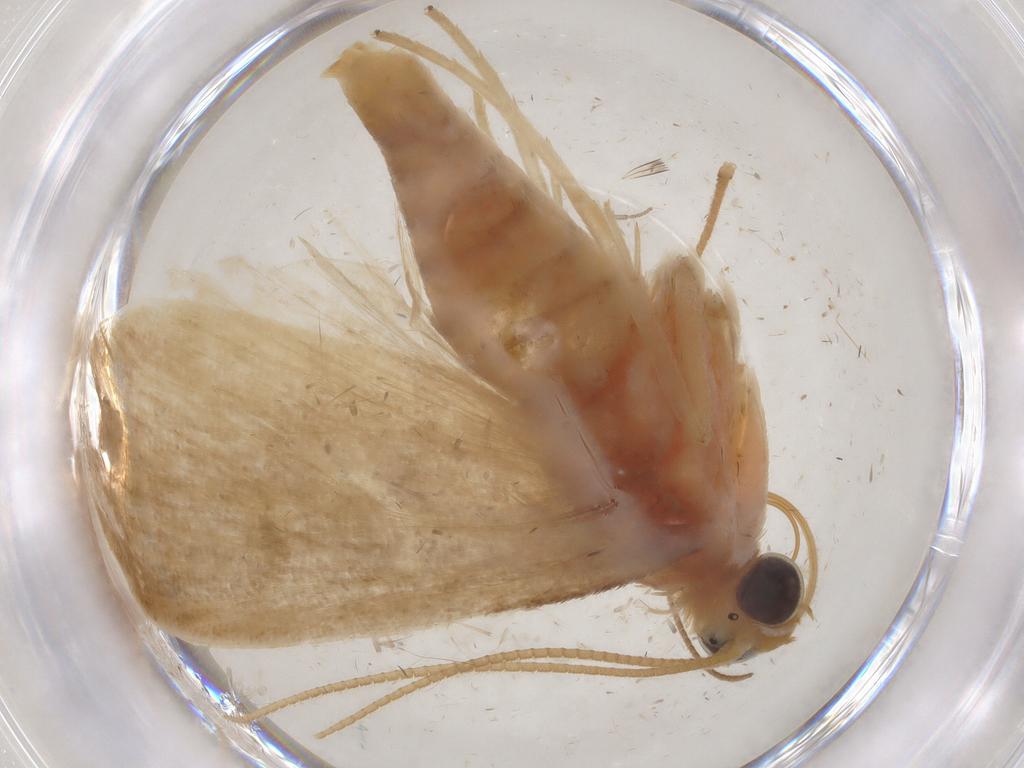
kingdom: Animalia
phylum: Arthropoda
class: Insecta
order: Lepidoptera
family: Crambidae
